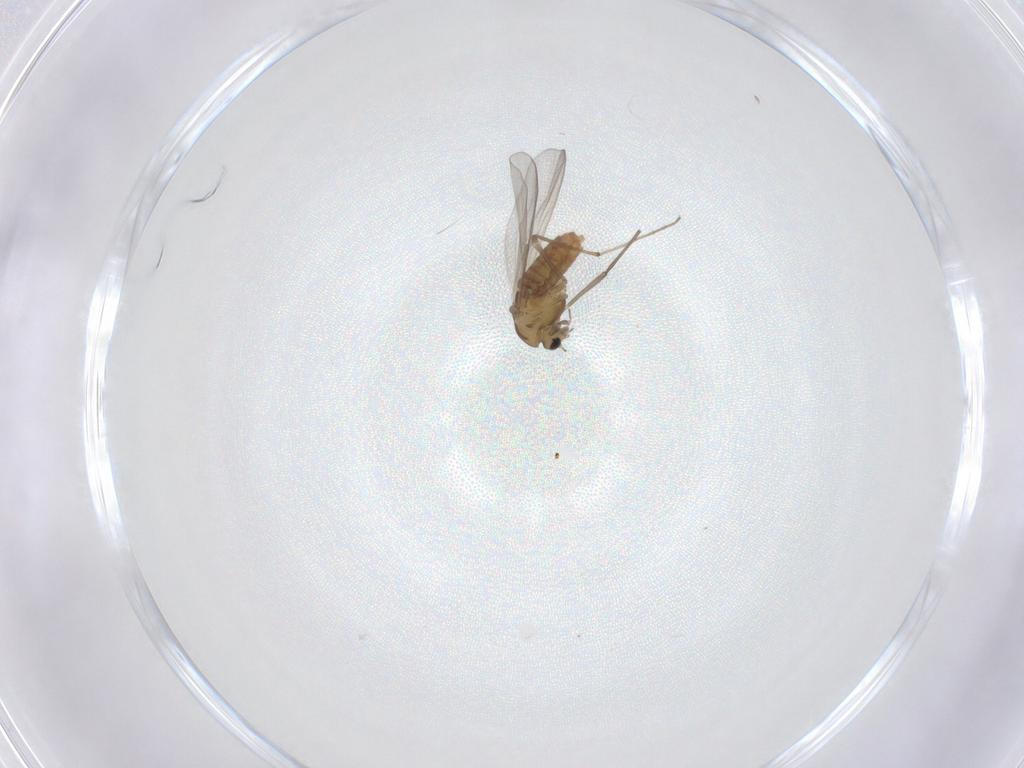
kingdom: Animalia
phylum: Arthropoda
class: Insecta
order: Diptera
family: Chironomidae
